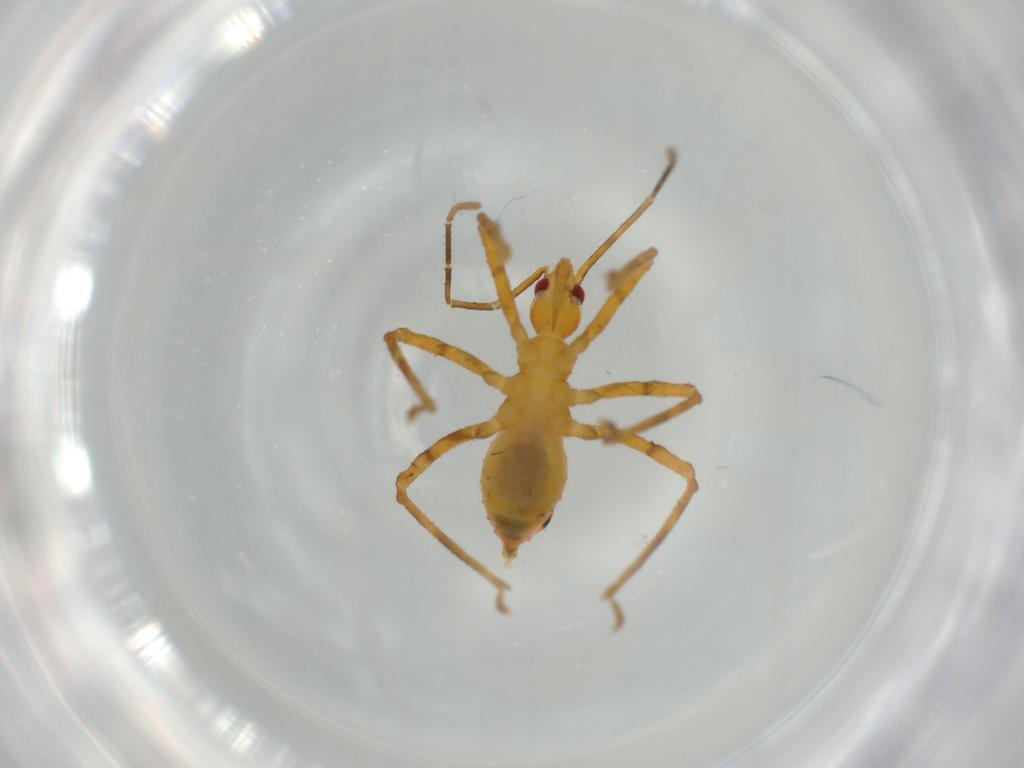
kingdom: Animalia
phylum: Arthropoda
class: Insecta
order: Hemiptera
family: Reduviidae
